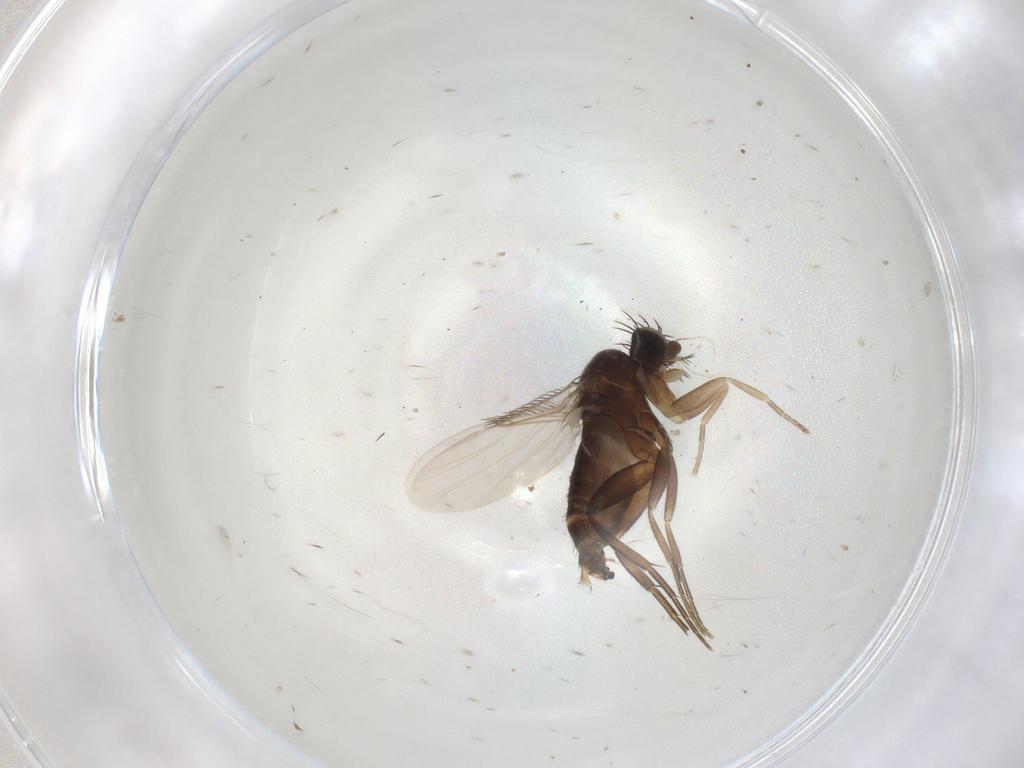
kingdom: Animalia
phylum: Arthropoda
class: Insecta
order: Diptera
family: Phoridae
